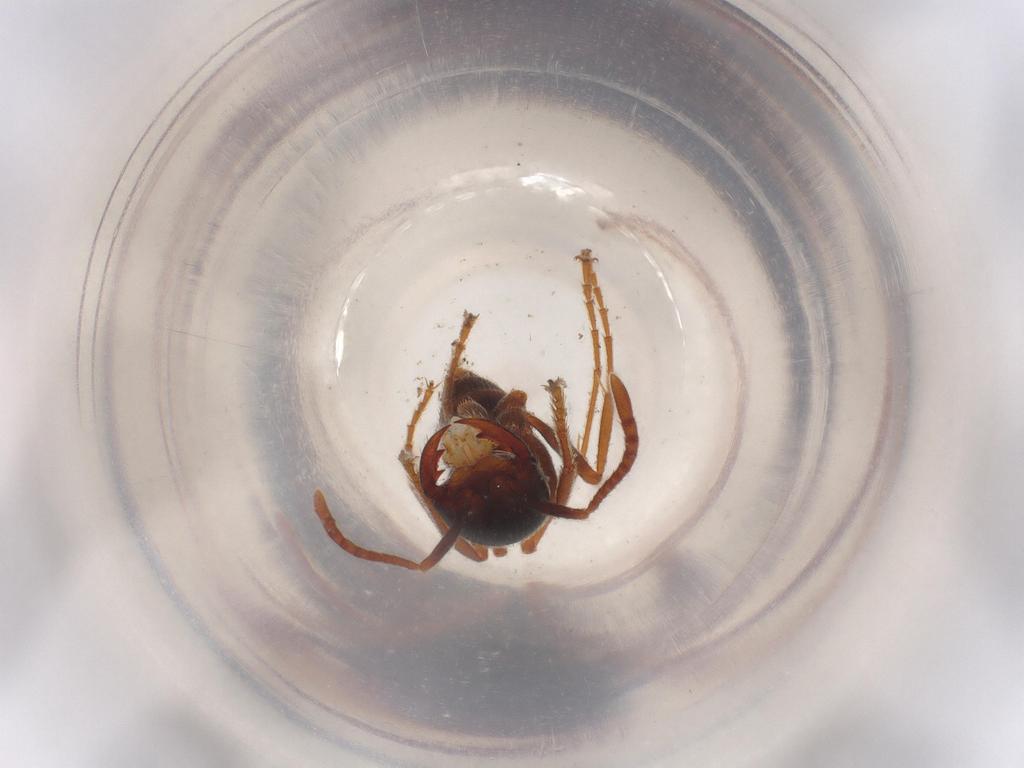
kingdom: Animalia
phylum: Arthropoda
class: Insecta
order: Hymenoptera
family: Formicidae
